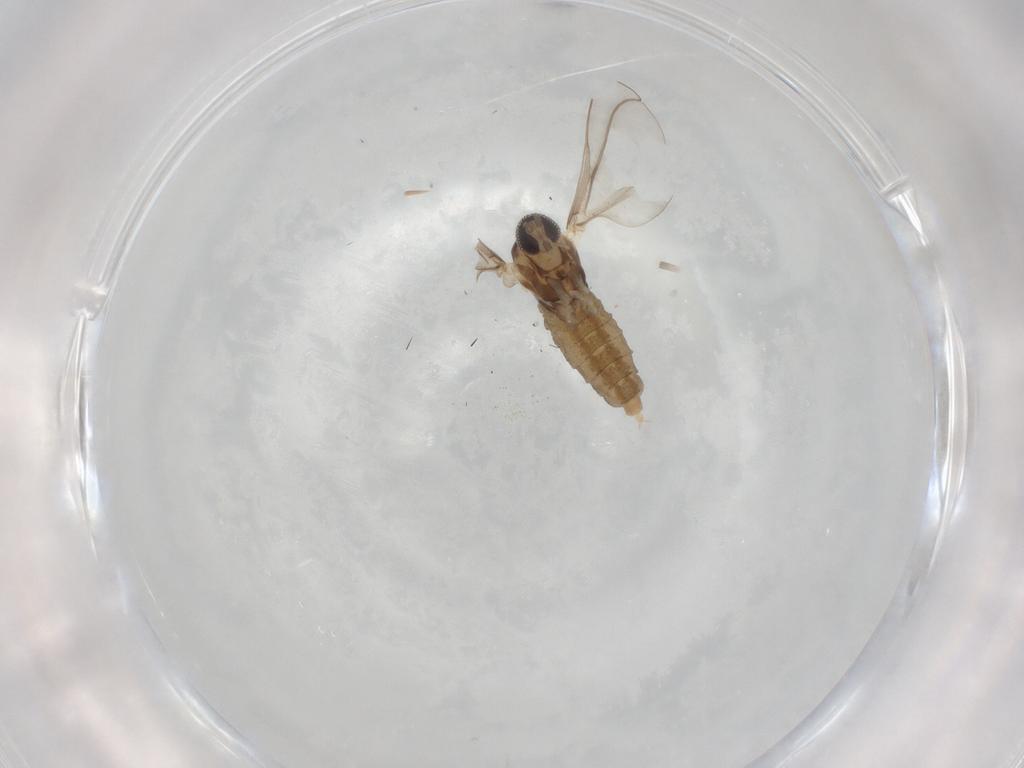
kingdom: Animalia
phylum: Arthropoda
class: Insecta
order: Diptera
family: Cecidomyiidae
